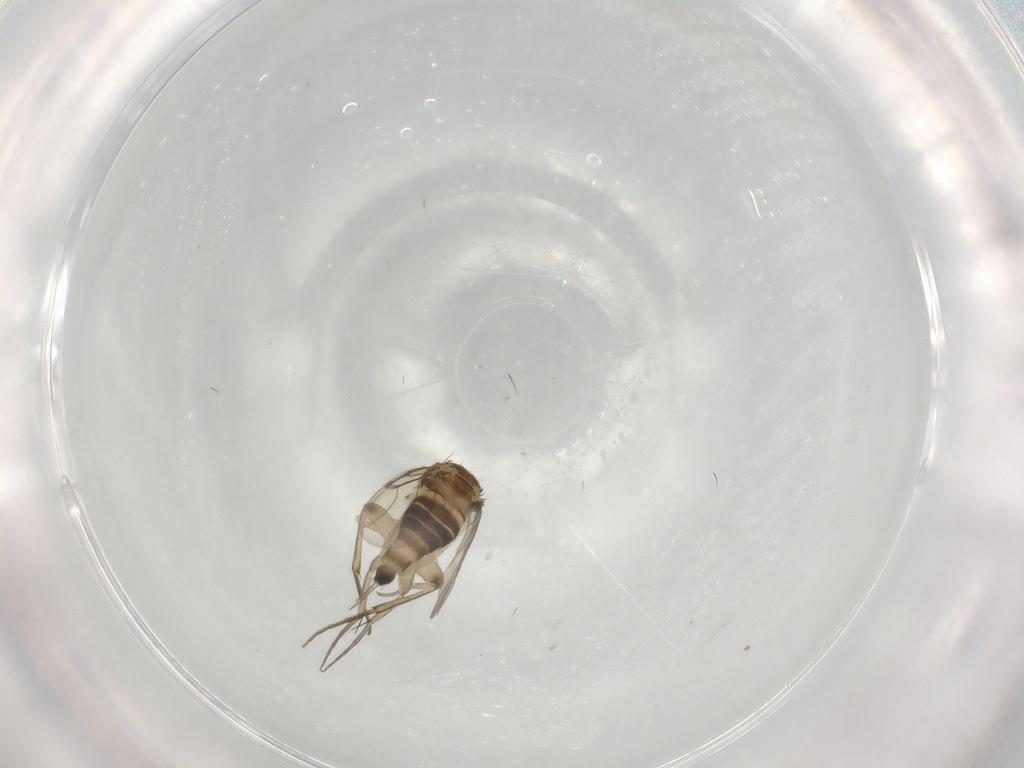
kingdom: Animalia
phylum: Arthropoda
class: Insecta
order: Diptera
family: Phoridae
